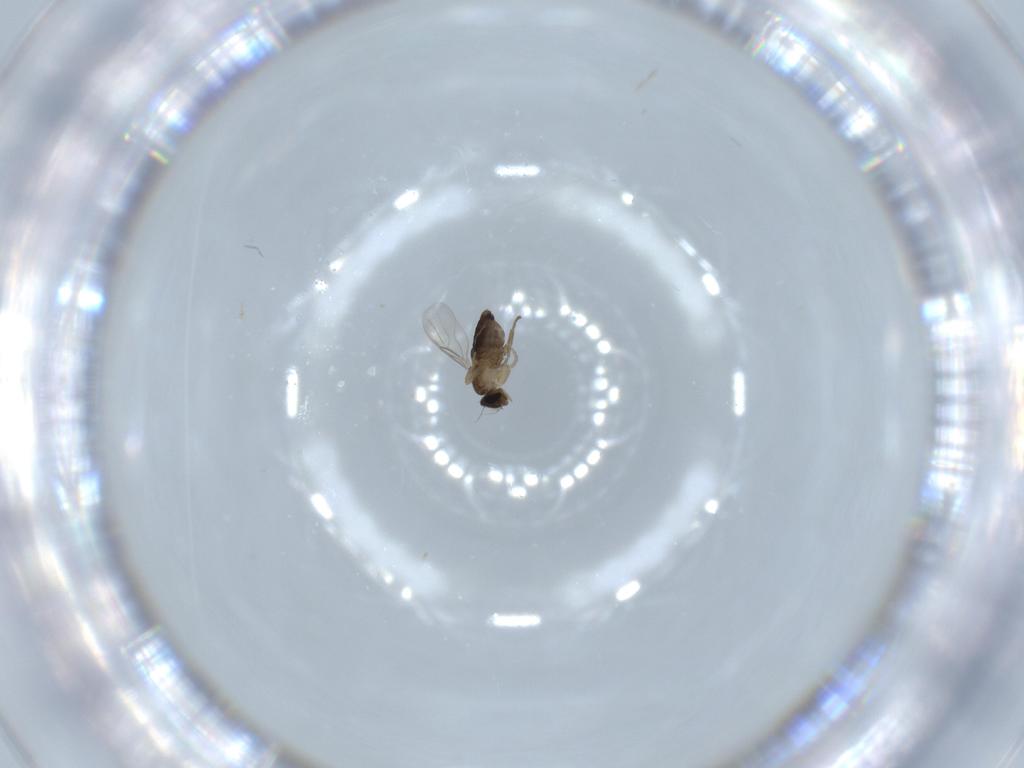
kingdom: Animalia
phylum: Arthropoda
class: Insecta
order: Diptera
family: Phoridae
